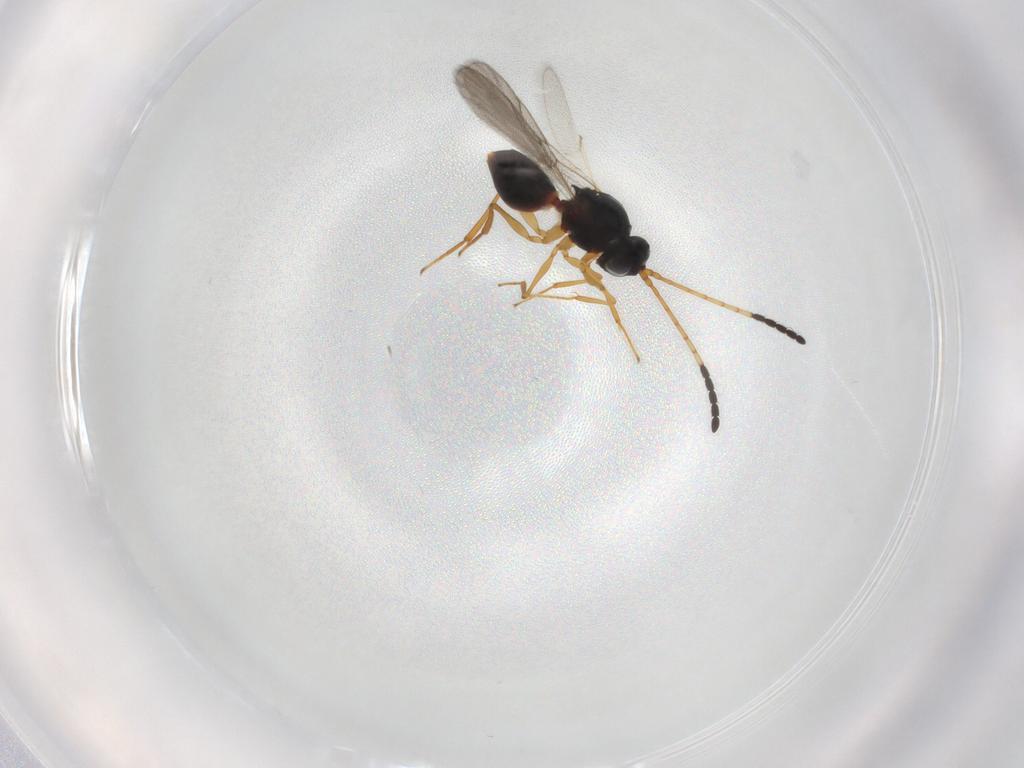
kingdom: Animalia
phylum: Arthropoda
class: Insecta
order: Hymenoptera
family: Figitidae
